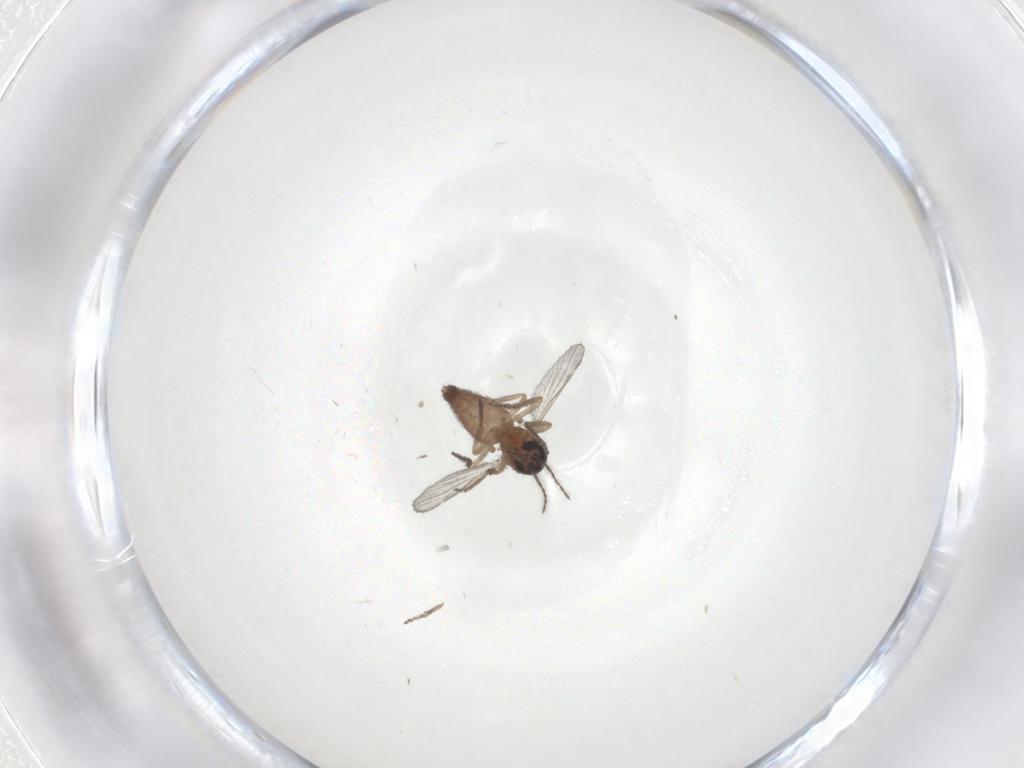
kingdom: Animalia
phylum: Arthropoda
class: Insecta
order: Diptera
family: Ceratopogonidae
